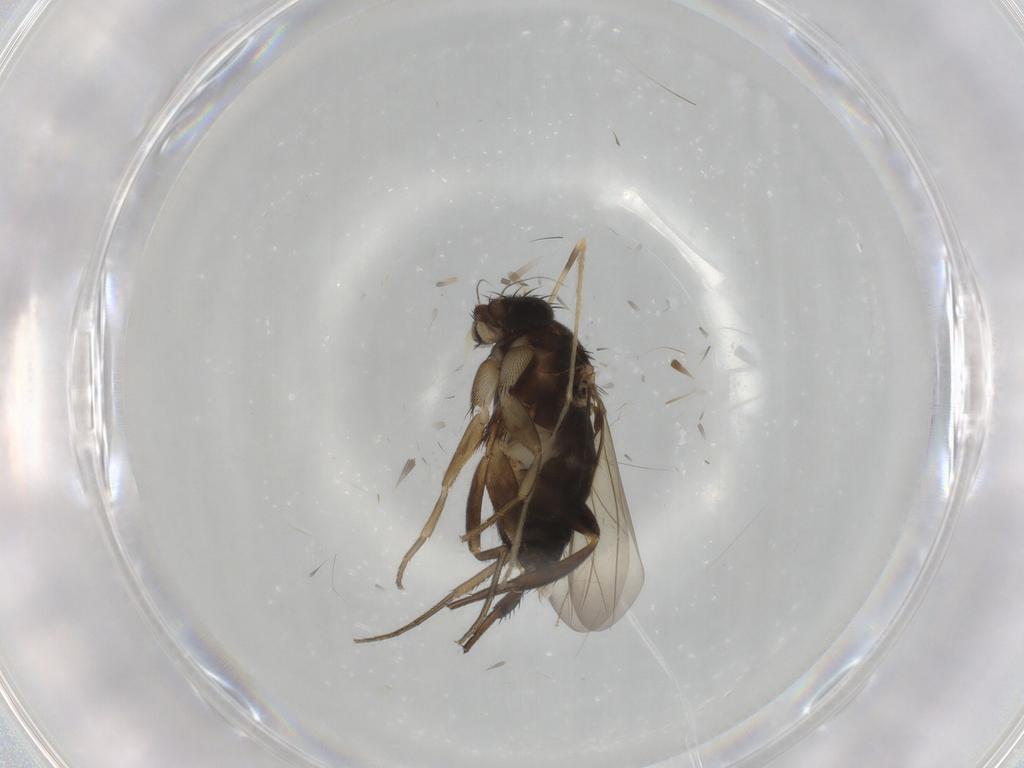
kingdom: Animalia
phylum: Arthropoda
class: Insecta
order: Diptera
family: Phoridae
